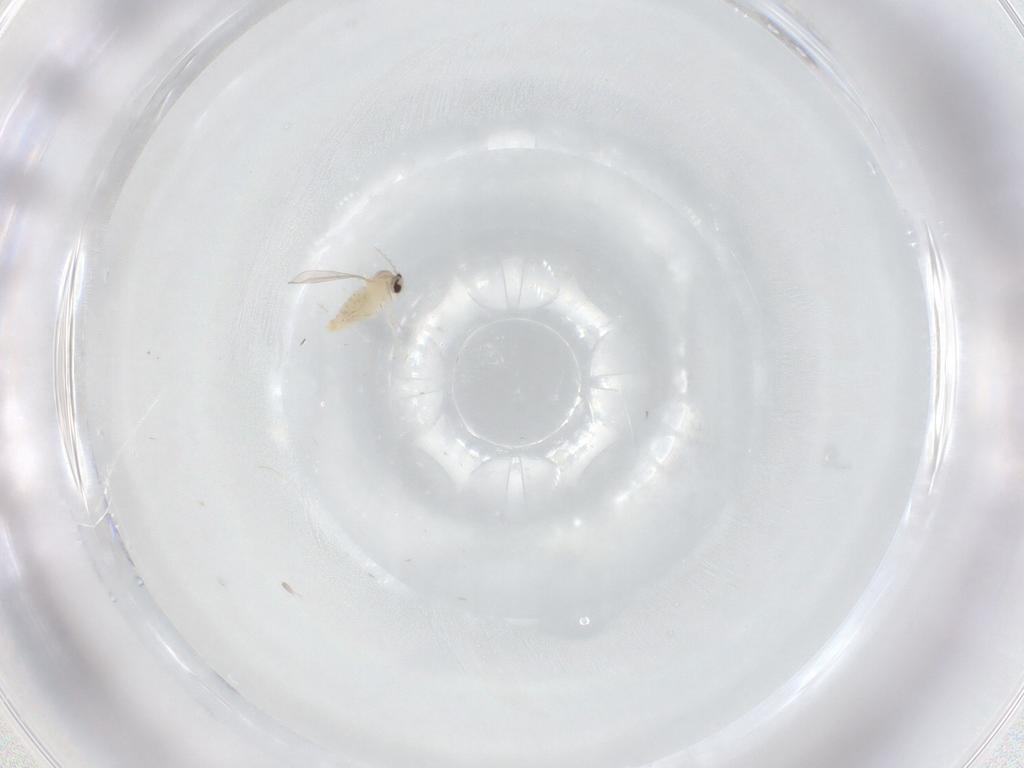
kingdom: Animalia
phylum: Arthropoda
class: Insecta
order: Diptera
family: Cecidomyiidae
